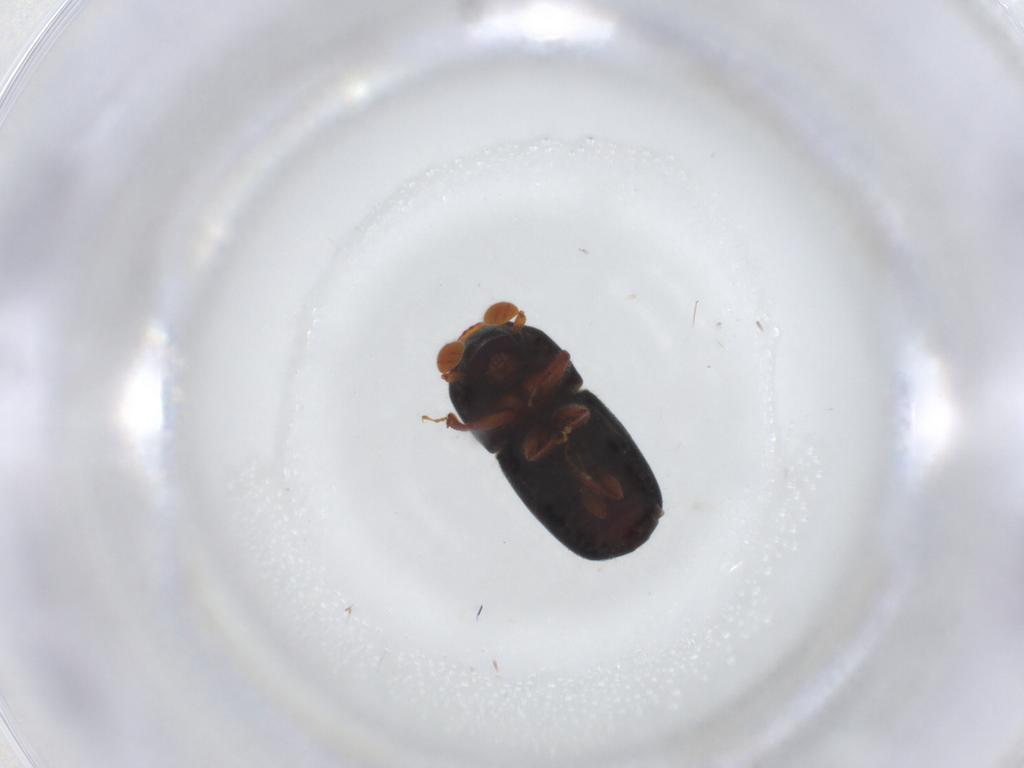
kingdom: Animalia
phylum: Arthropoda
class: Insecta
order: Coleoptera
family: Curculionidae
